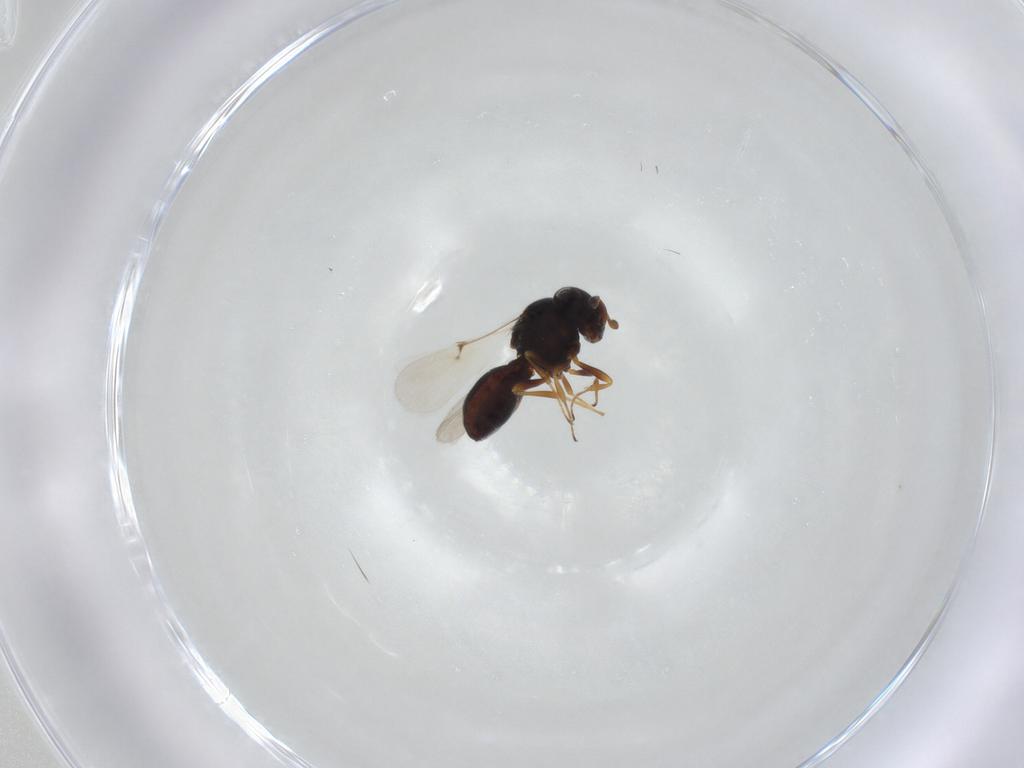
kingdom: Animalia
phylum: Arthropoda
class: Insecta
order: Hymenoptera
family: Scelionidae
